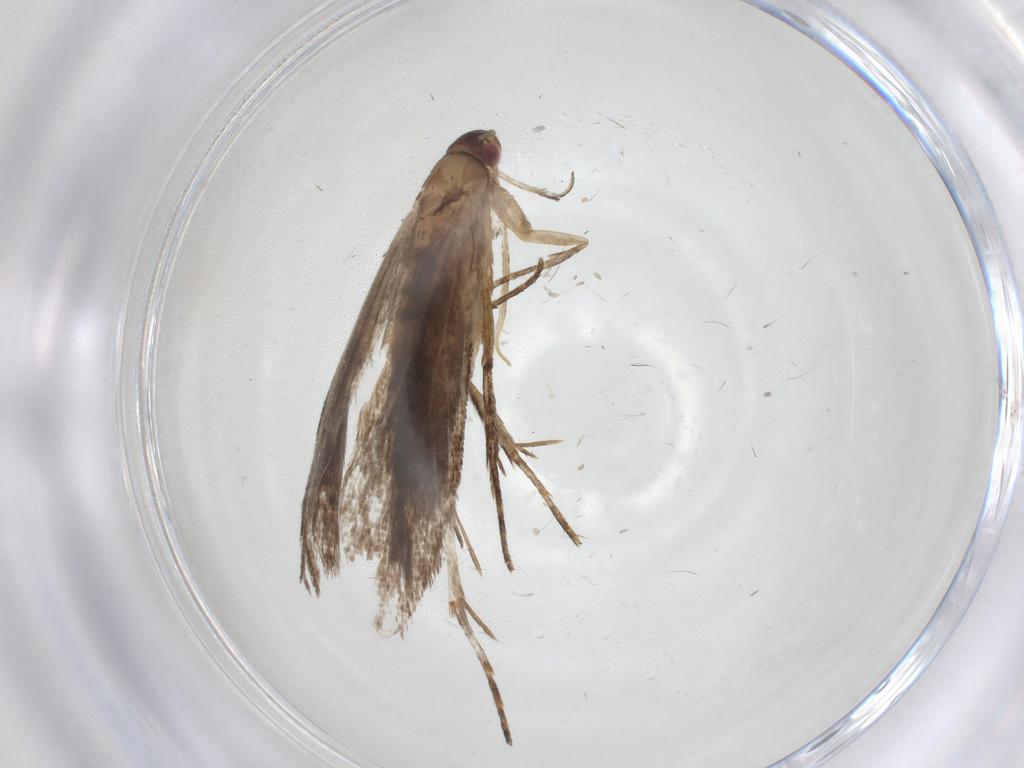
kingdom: Animalia
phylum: Arthropoda
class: Insecta
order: Lepidoptera
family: Gelechiidae
